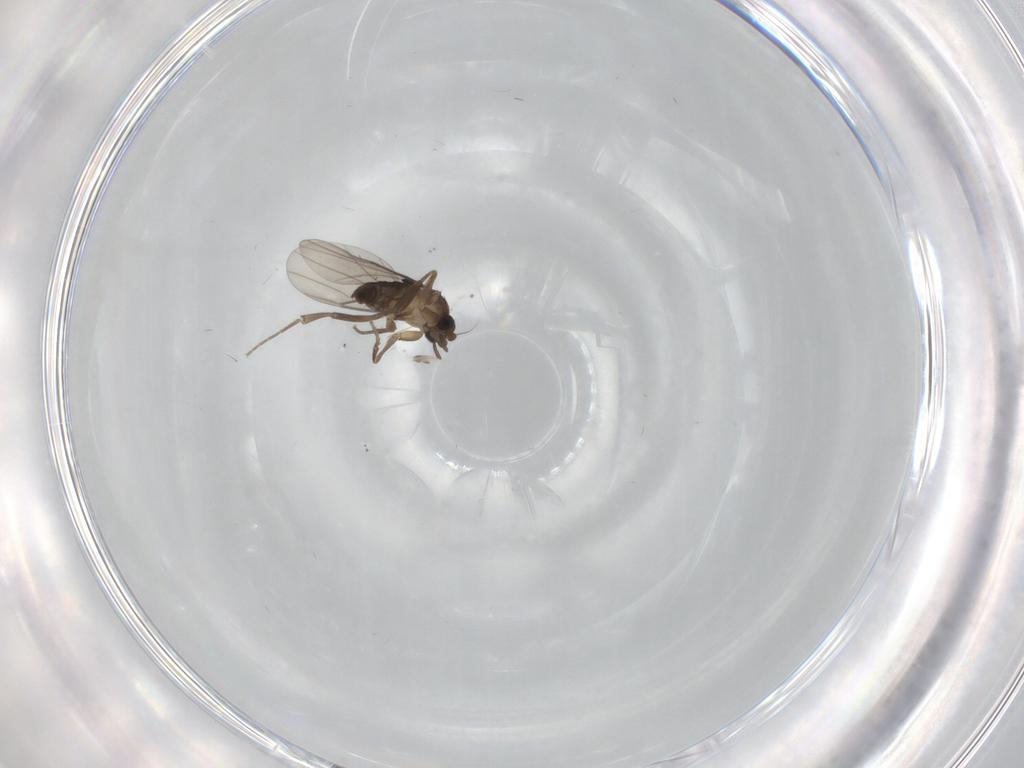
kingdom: Animalia
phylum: Arthropoda
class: Insecta
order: Diptera
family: Psychodidae
